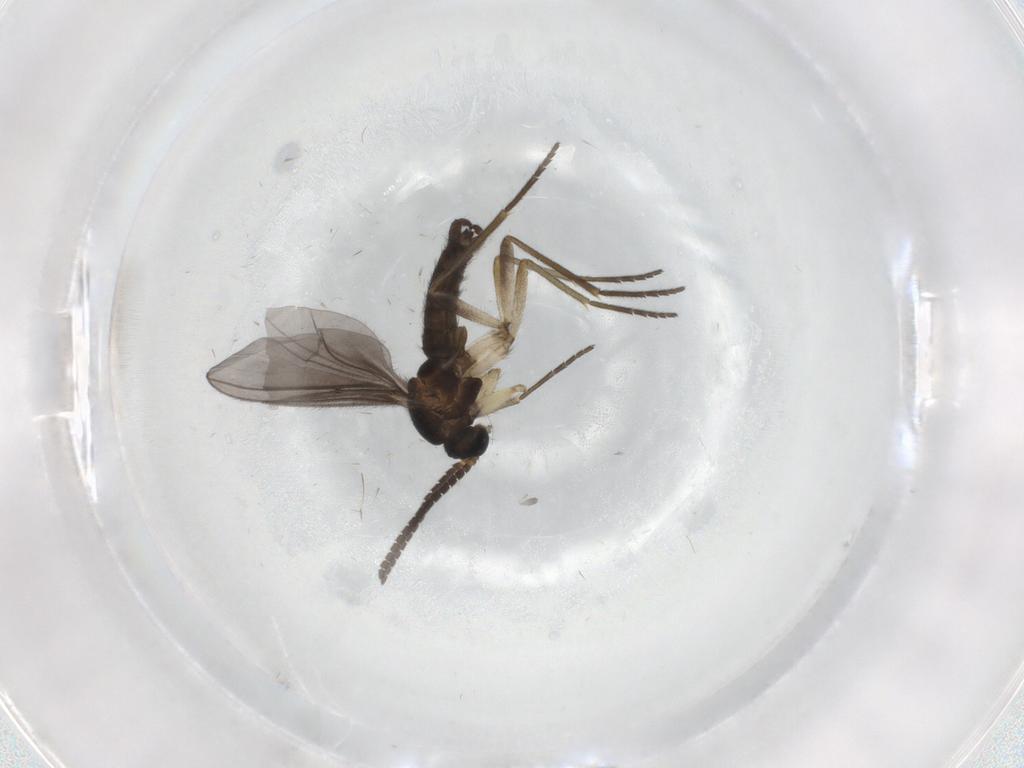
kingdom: Animalia
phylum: Arthropoda
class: Insecta
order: Diptera
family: Sciaridae
